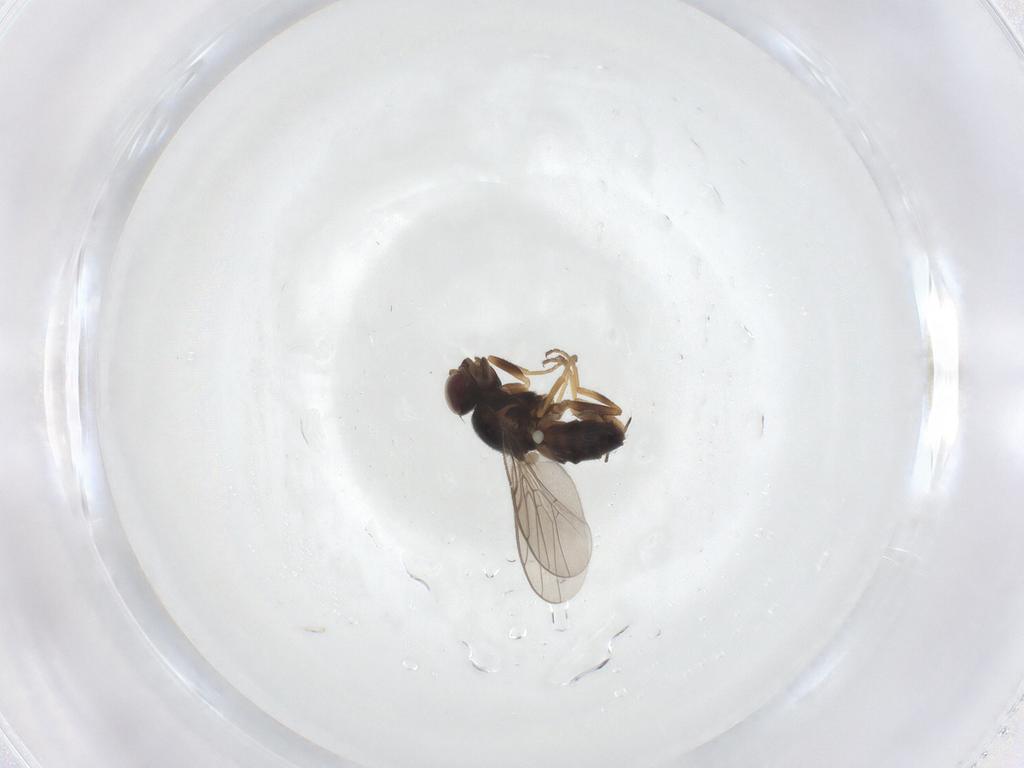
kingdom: Animalia
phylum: Arthropoda
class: Insecta
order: Diptera
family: Chloropidae
